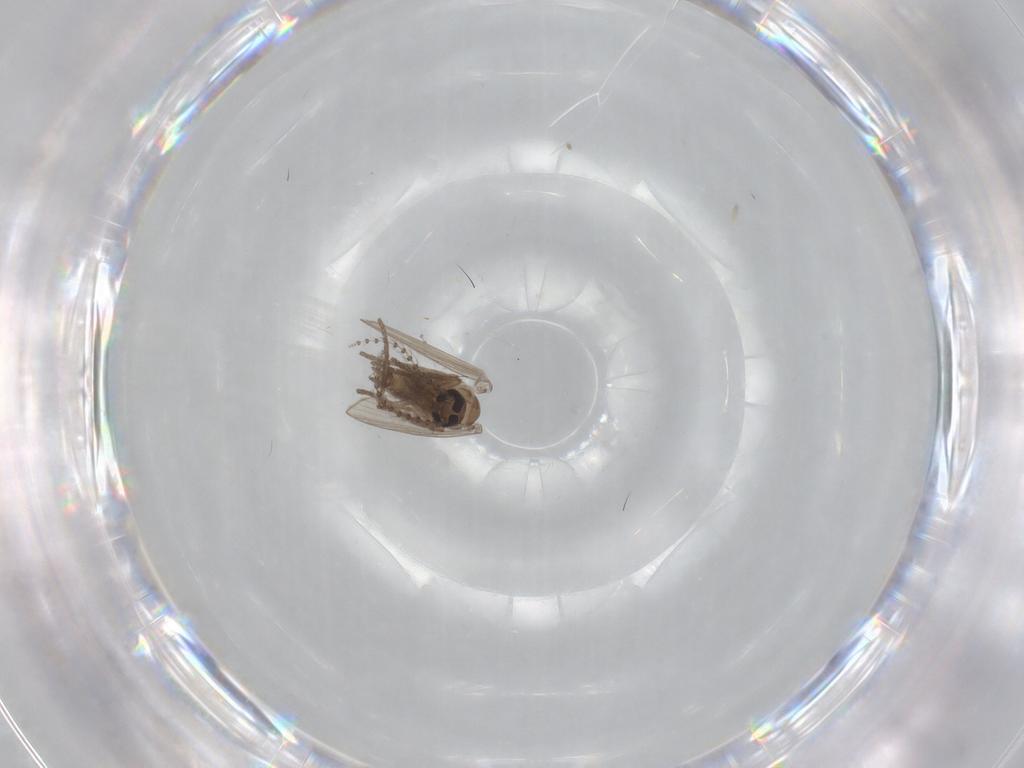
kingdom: Animalia
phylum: Arthropoda
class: Insecta
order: Diptera
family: Psychodidae
